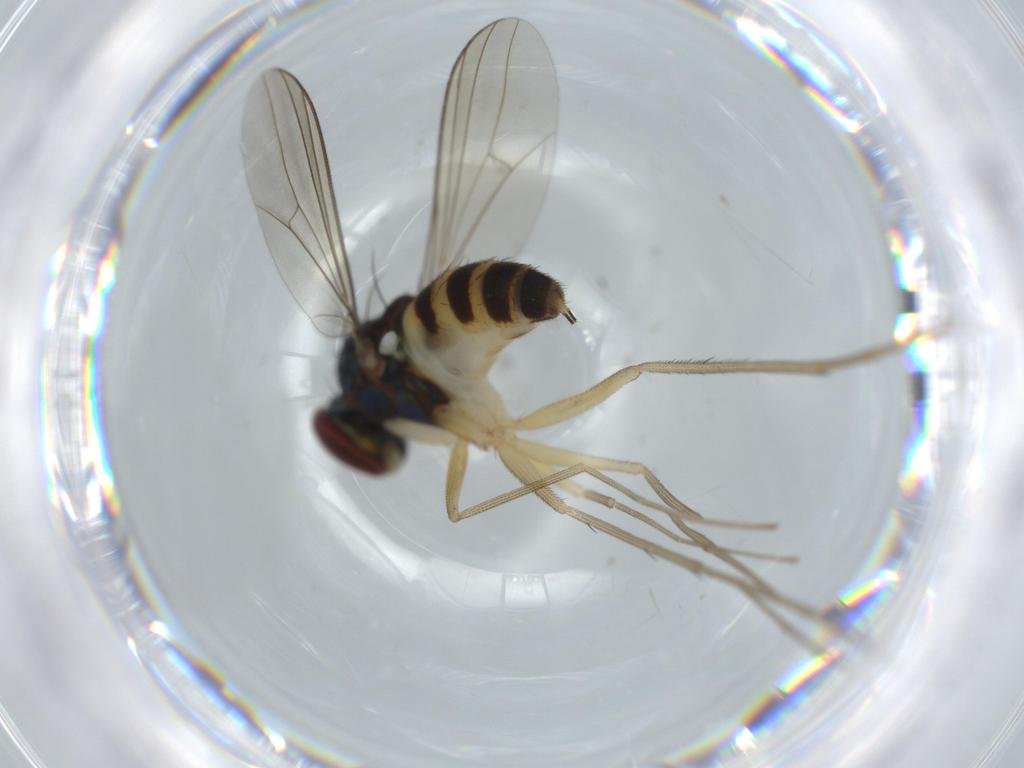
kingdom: Animalia
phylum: Arthropoda
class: Insecta
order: Diptera
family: Dolichopodidae
